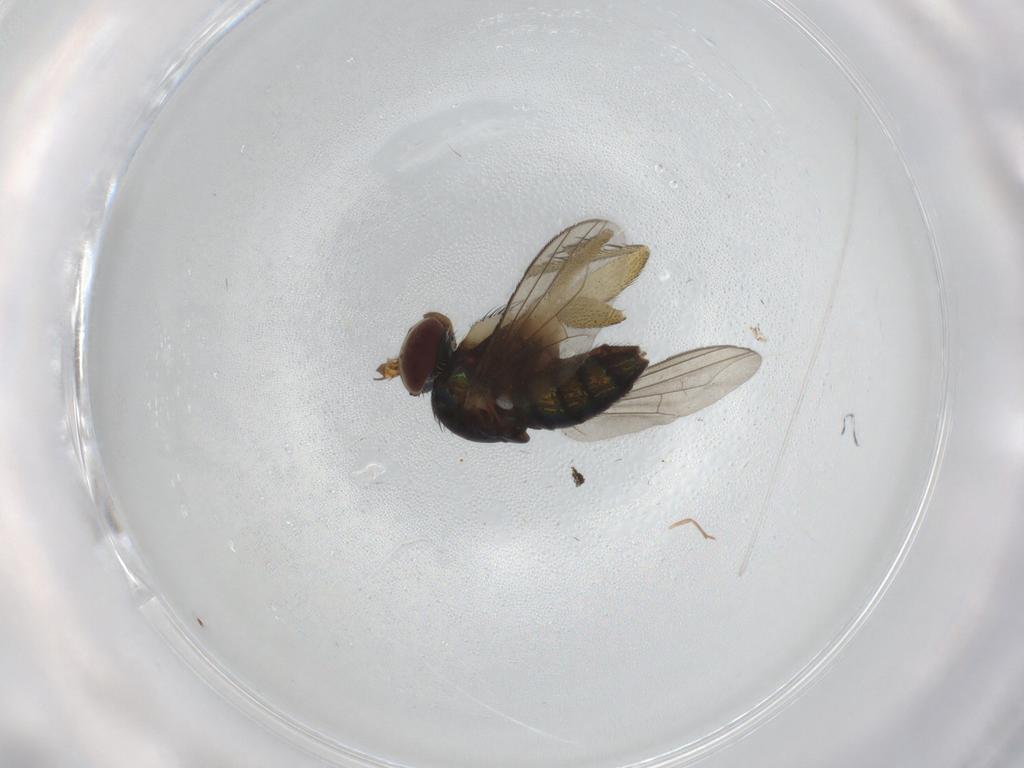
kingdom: Animalia
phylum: Arthropoda
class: Insecta
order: Diptera
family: Dolichopodidae
